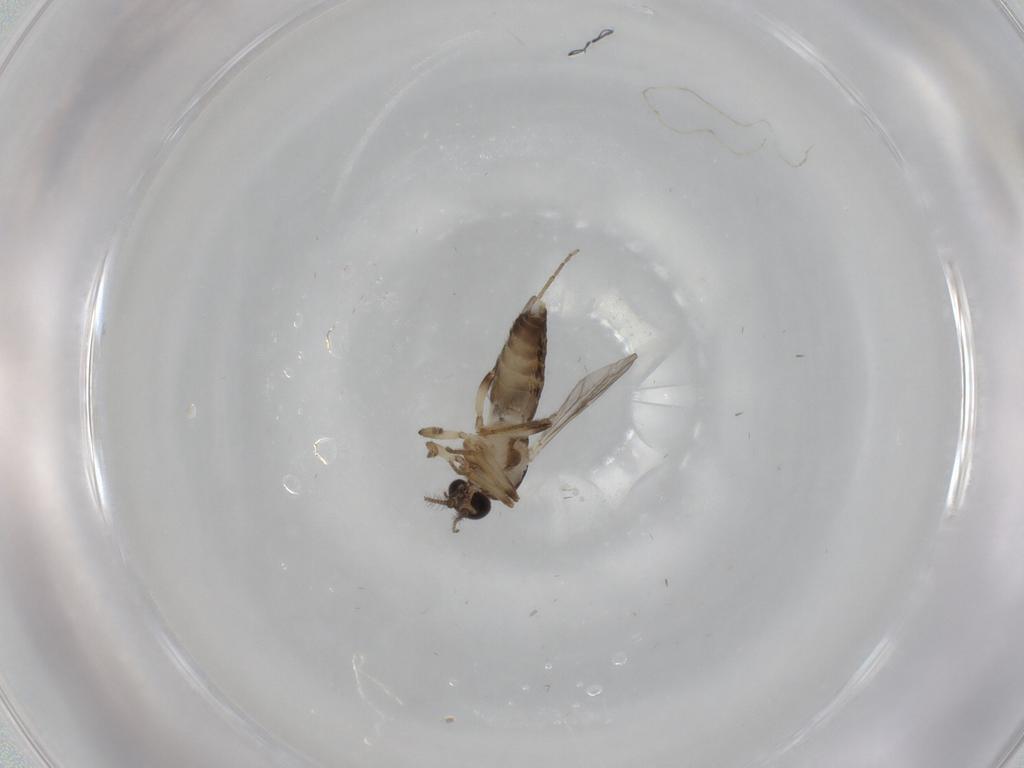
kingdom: Animalia
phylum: Arthropoda
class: Insecta
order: Diptera
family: Ceratopogonidae
